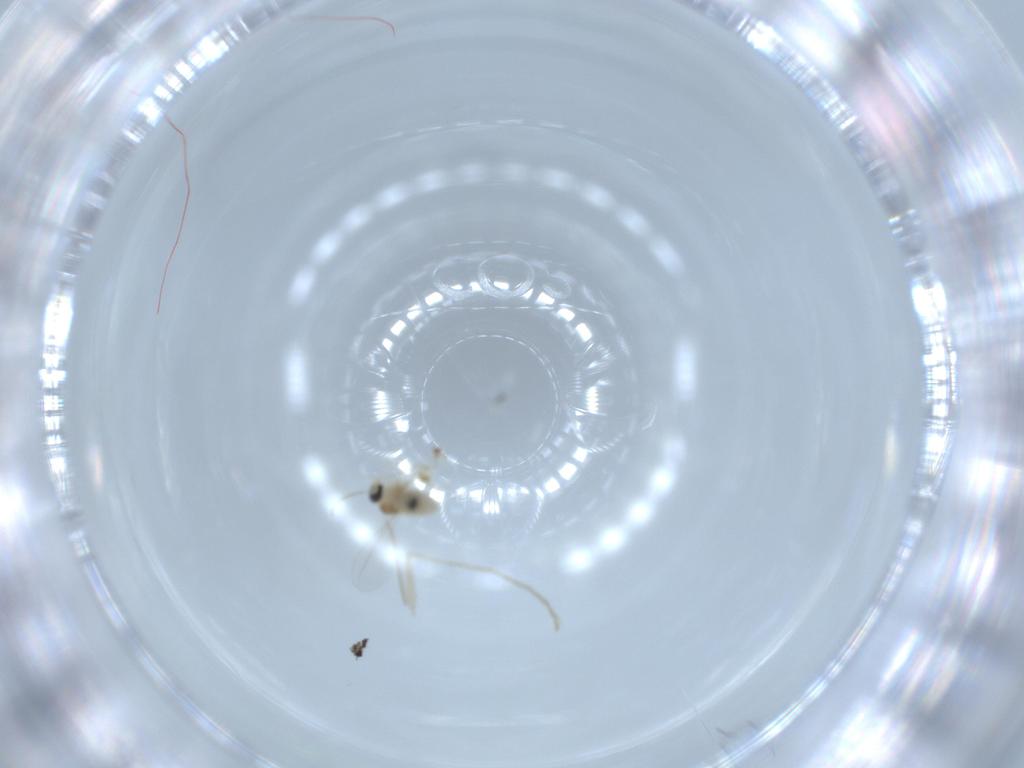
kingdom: Animalia
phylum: Arthropoda
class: Insecta
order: Diptera
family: Psychodidae
